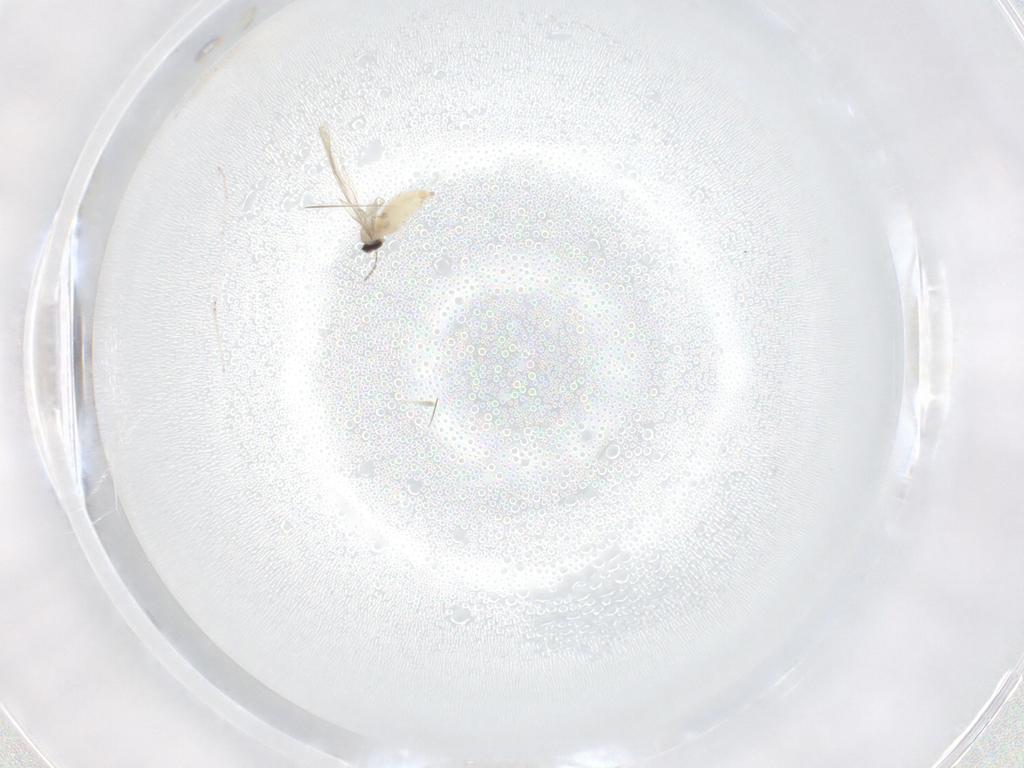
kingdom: Animalia
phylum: Arthropoda
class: Insecta
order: Diptera
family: Cecidomyiidae
